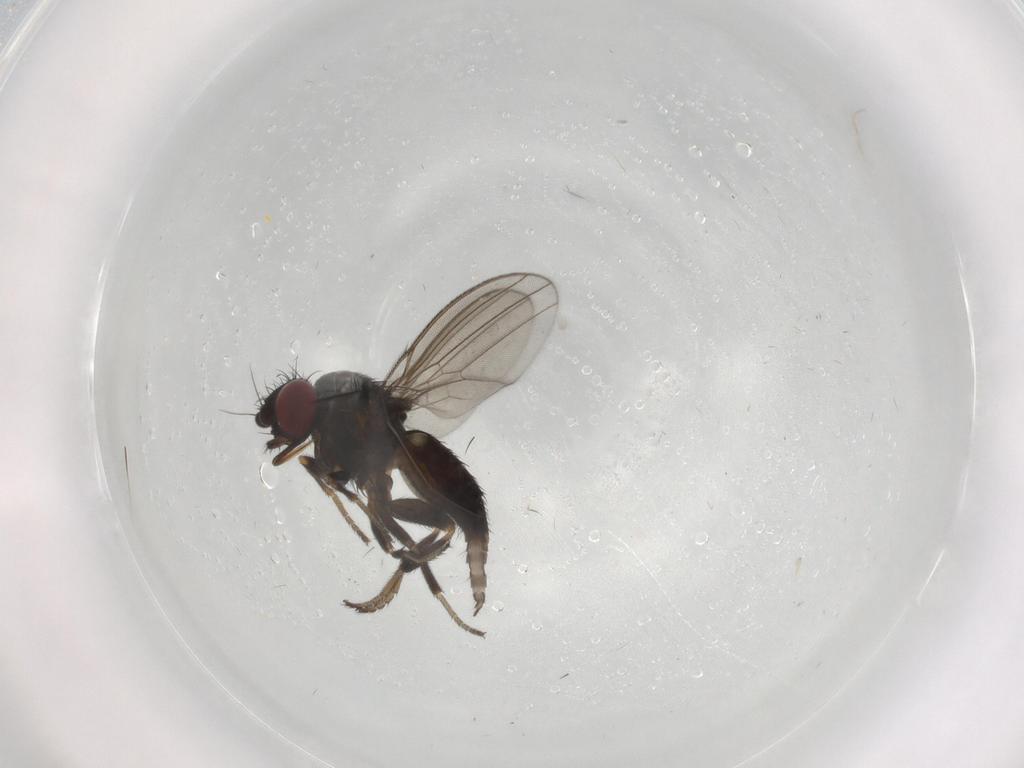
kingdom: Animalia
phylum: Arthropoda
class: Insecta
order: Diptera
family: Milichiidae
